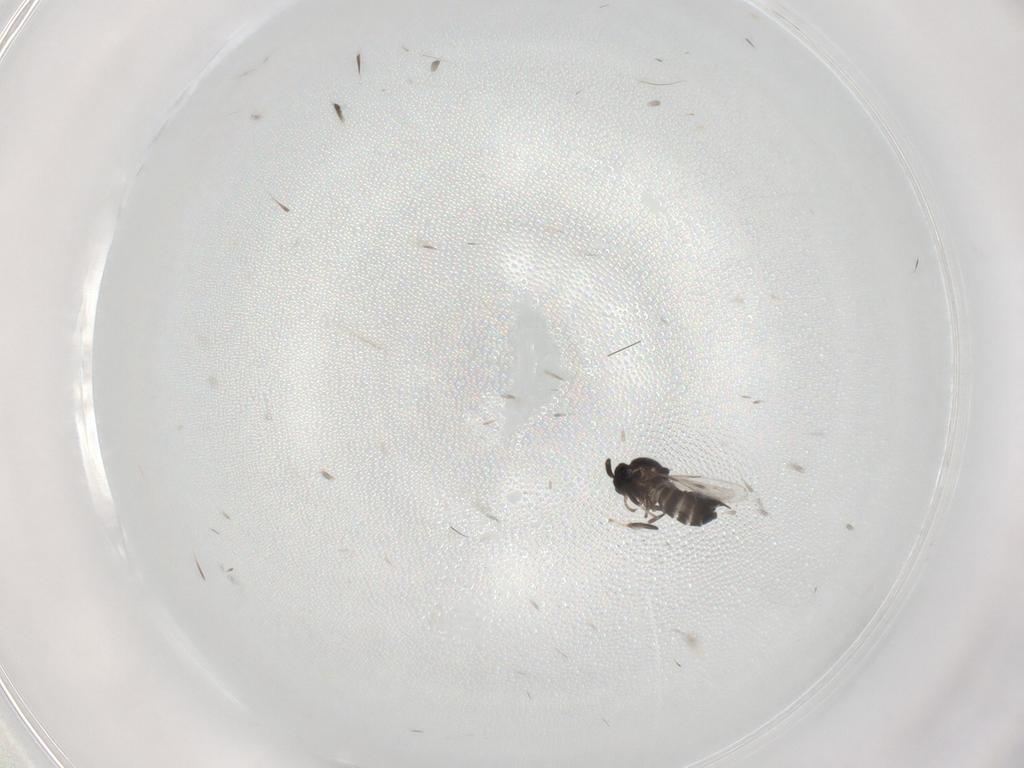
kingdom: Animalia
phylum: Arthropoda
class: Insecta
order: Diptera
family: Scatopsidae
